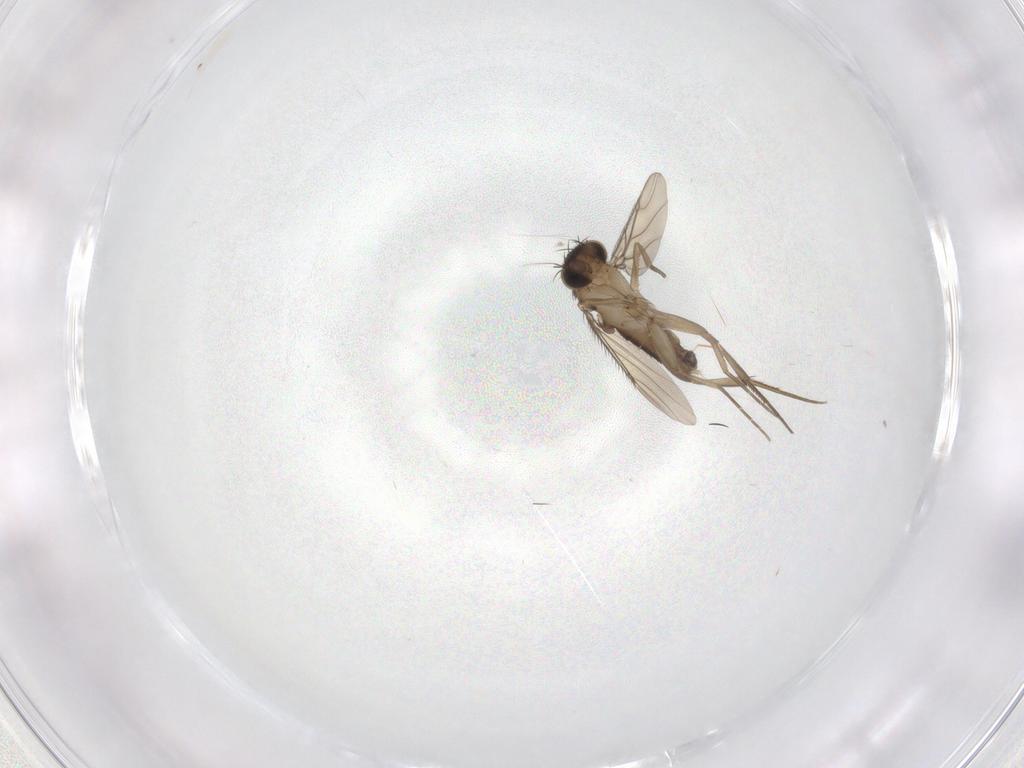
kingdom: Animalia
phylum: Arthropoda
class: Insecta
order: Diptera
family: Phoridae
